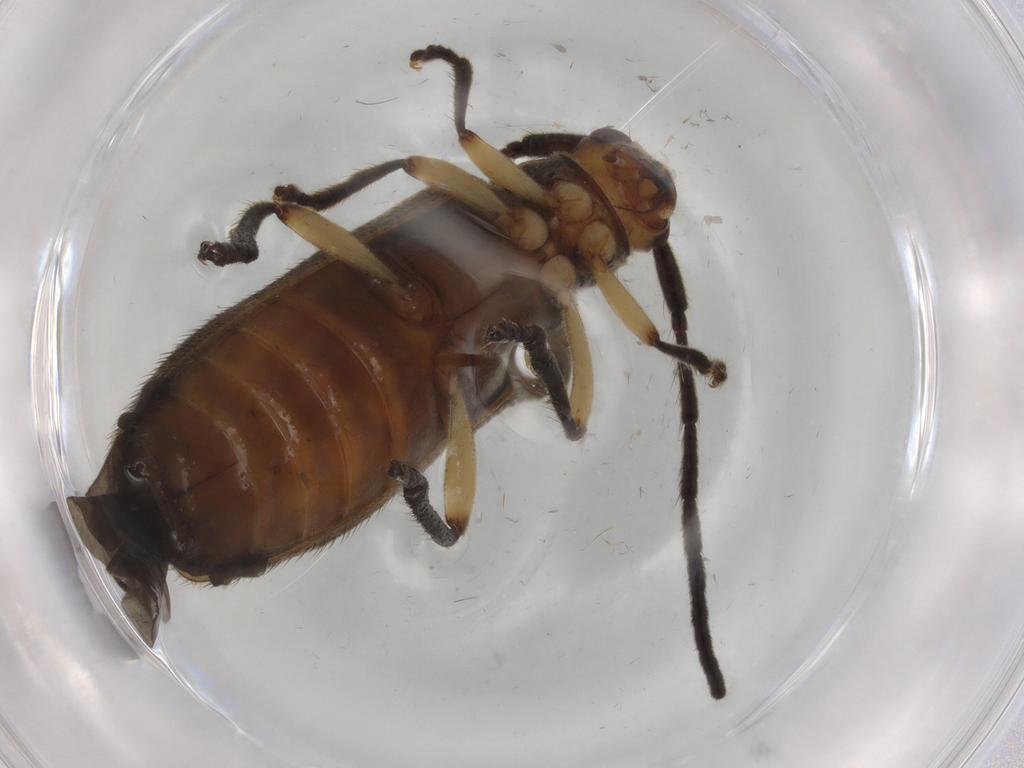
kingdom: Animalia
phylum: Arthropoda
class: Insecta
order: Coleoptera
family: Cerambycidae
